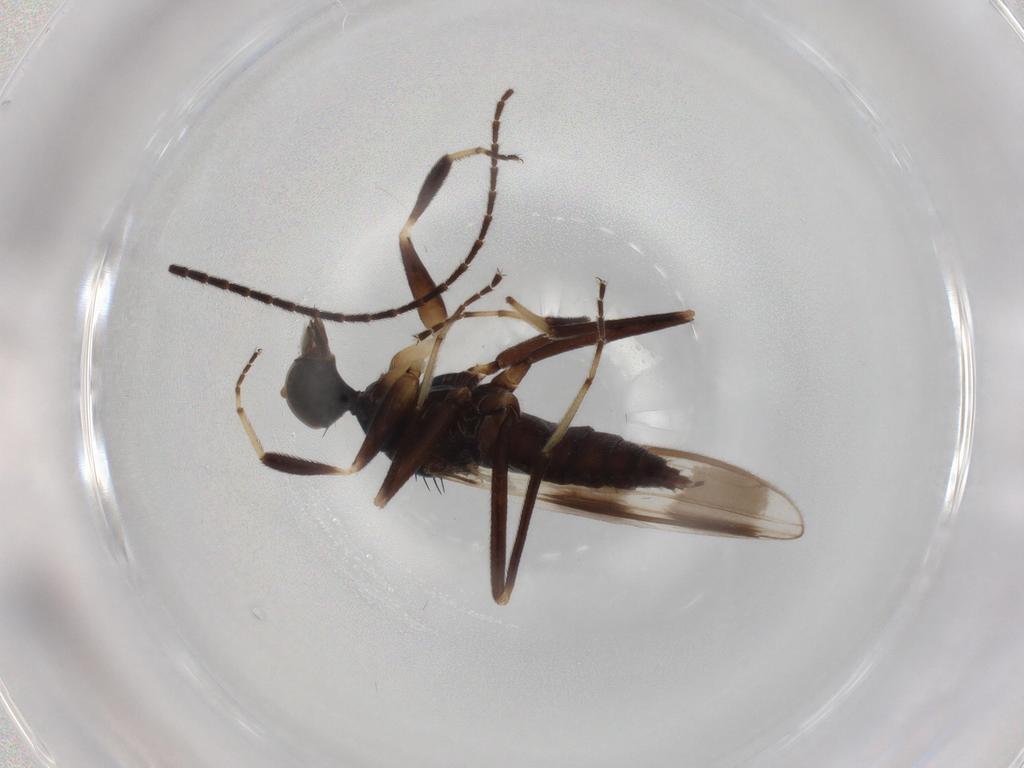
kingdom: Animalia
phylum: Arthropoda
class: Insecta
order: Diptera
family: Hybotidae
